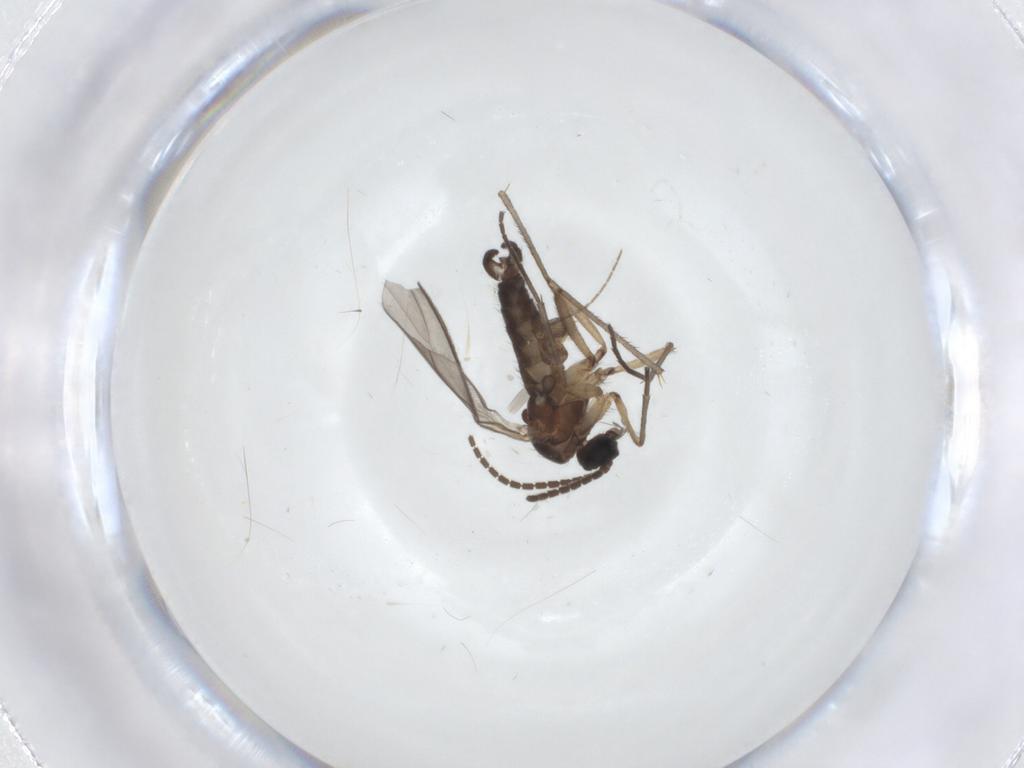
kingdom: Animalia
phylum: Arthropoda
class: Insecta
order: Diptera
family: Sciaridae
